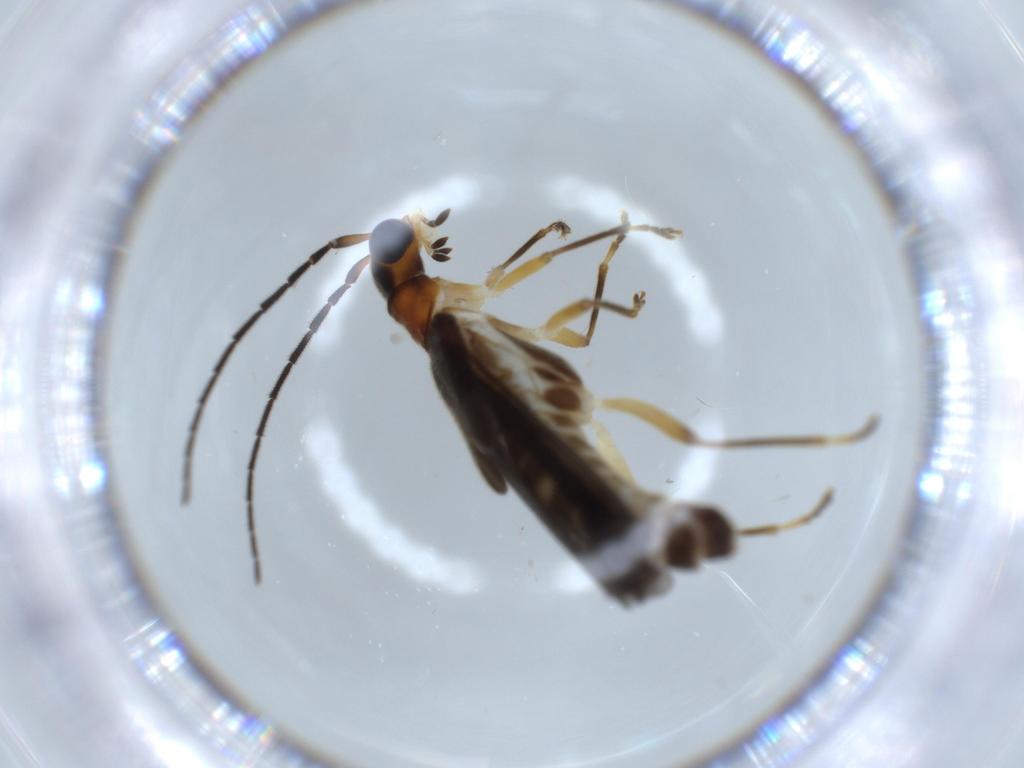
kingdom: Animalia
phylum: Arthropoda
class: Insecta
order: Coleoptera
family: Cantharidae
